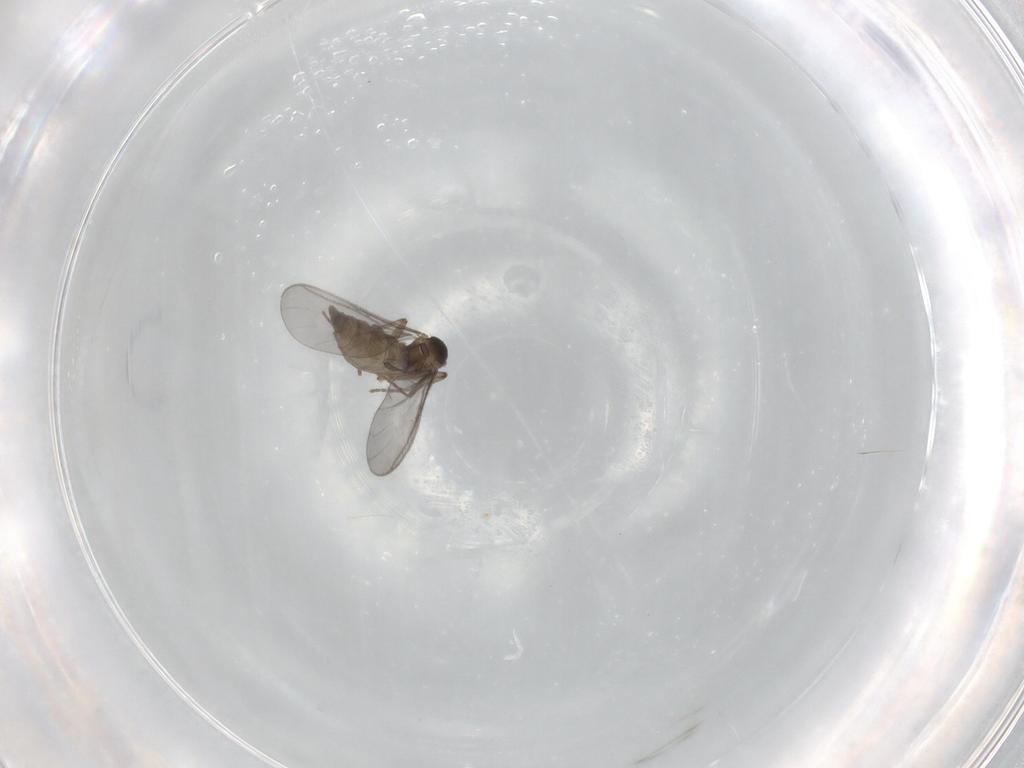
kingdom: Animalia
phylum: Arthropoda
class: Insecta
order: Diptera
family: Cecidomyiidae
